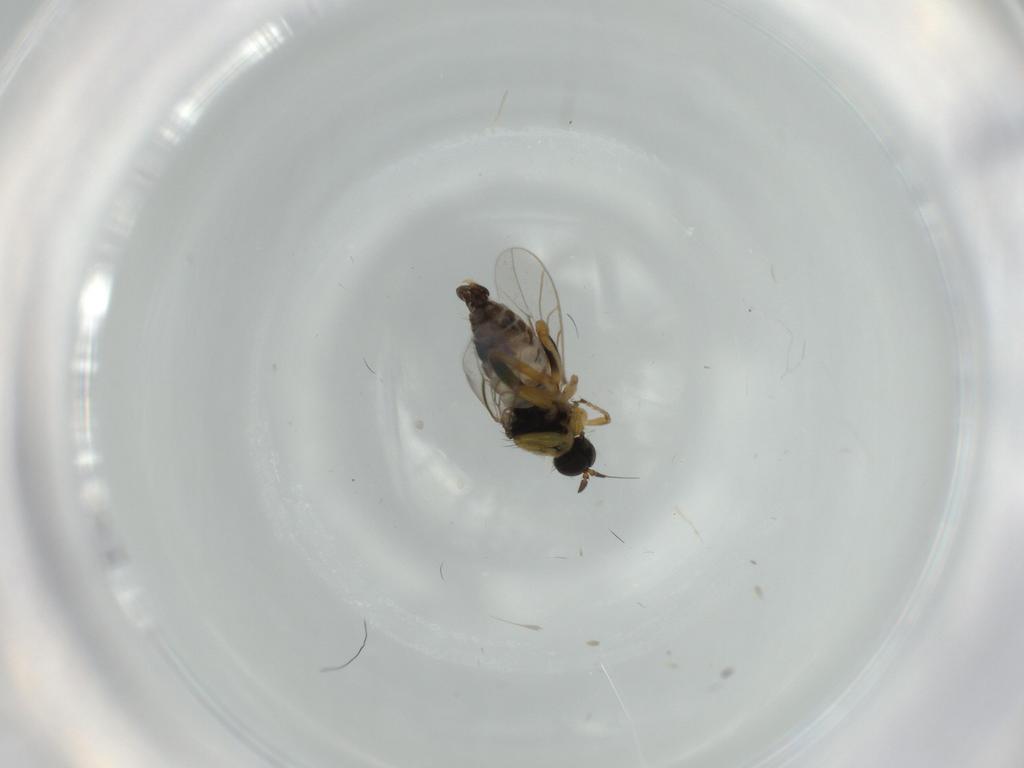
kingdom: Animalia
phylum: Arthropoda
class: Insecta
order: Diptera
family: Hybotidae
